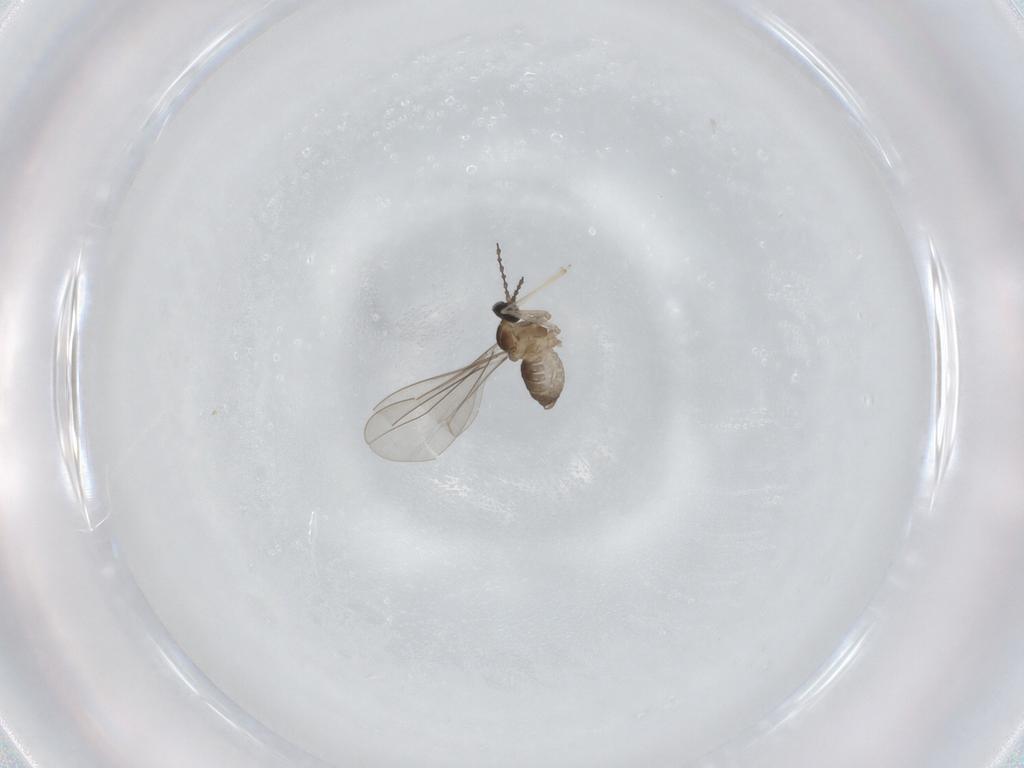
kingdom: Animalia
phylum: Arthropoda
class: Insecta
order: Diptera
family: Cecidomyiidae
